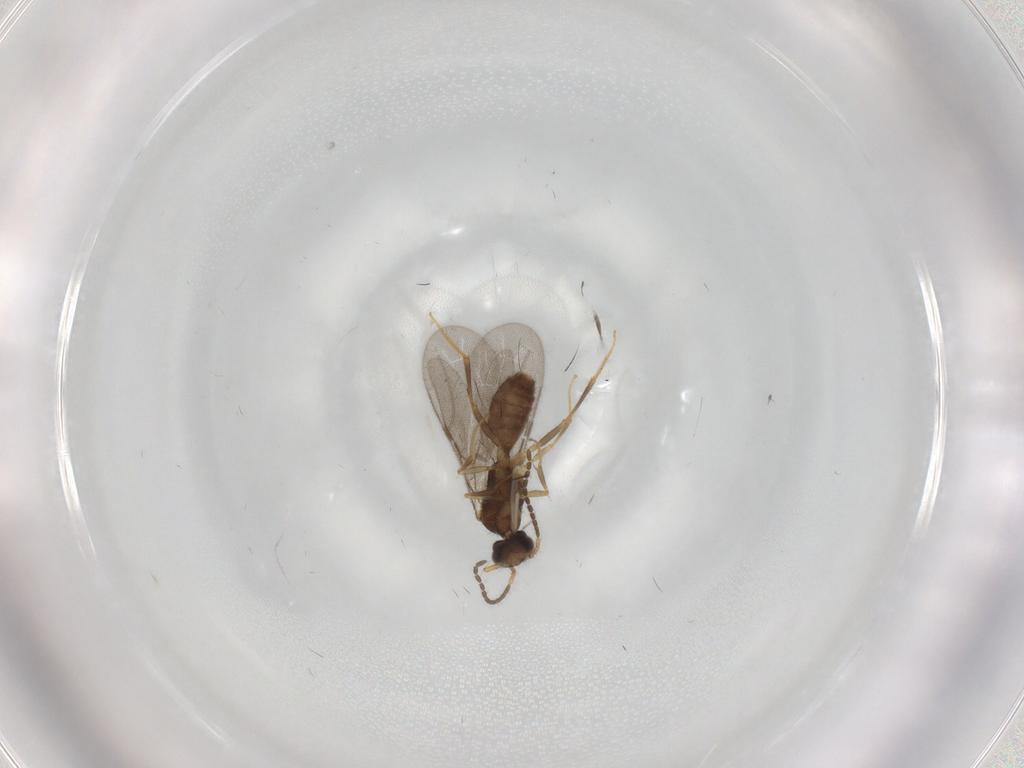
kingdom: Animalia
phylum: Arthropoda
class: Insecta
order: Hymenoptera
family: Bethylidae
